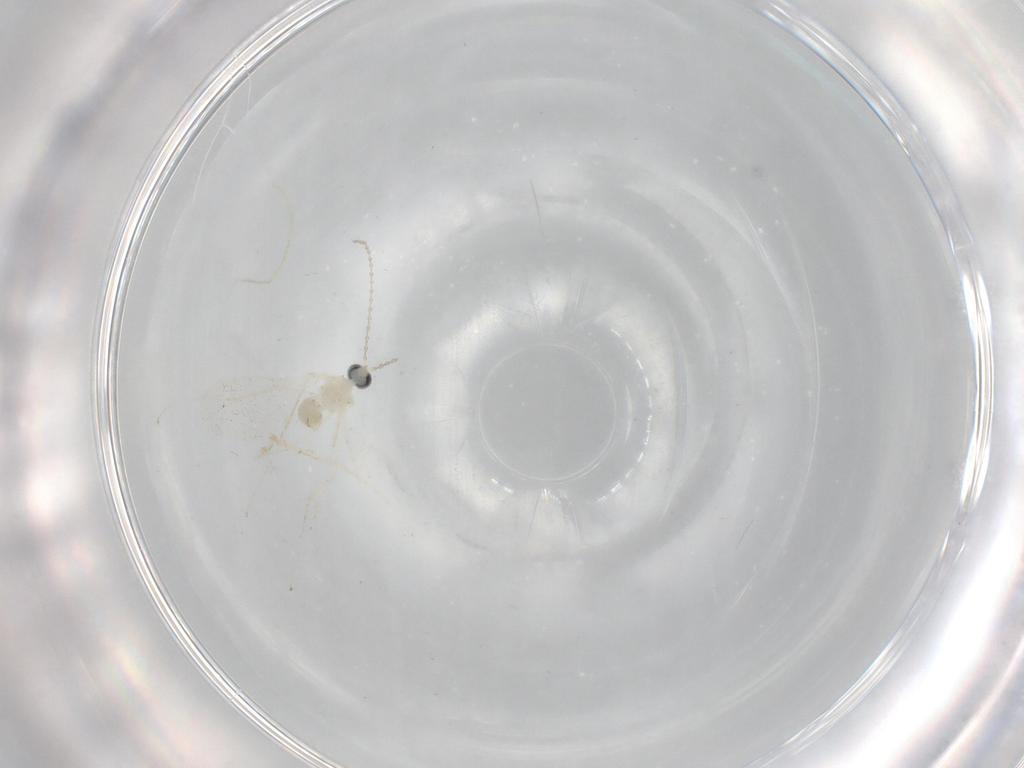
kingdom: Animalia
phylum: Arthropoda
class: Insecta
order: Diptera
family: Cecidomyiidae
